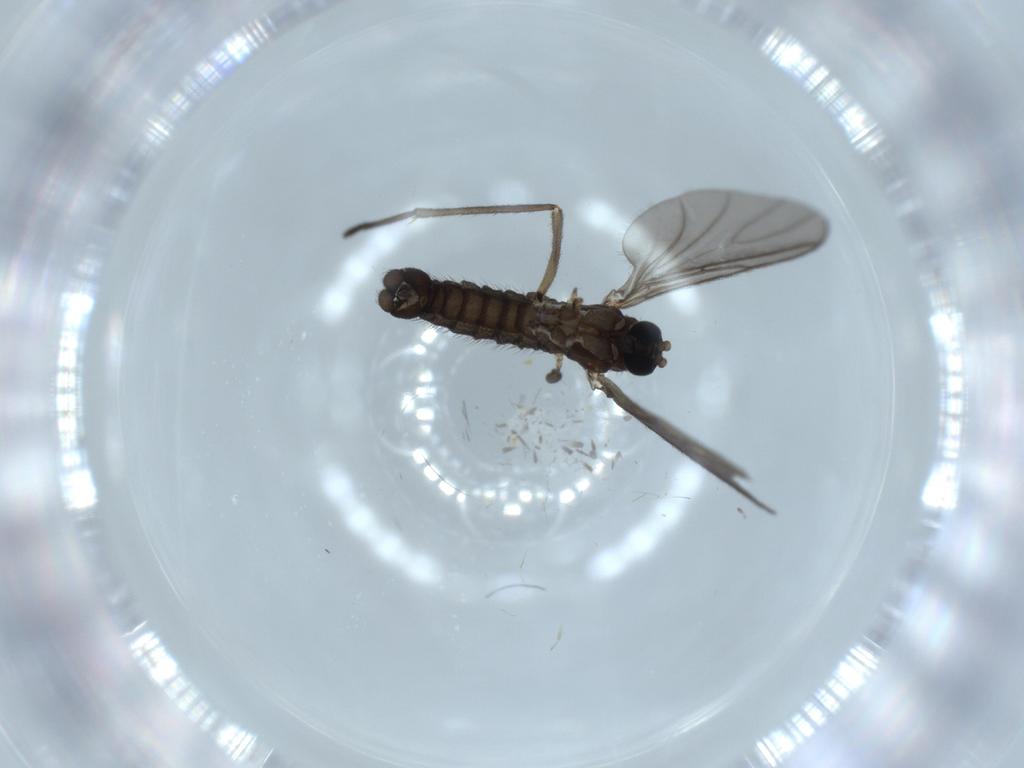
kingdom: Animalia
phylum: Arthropoda
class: Insecta
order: Diptera
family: Sciaridae
